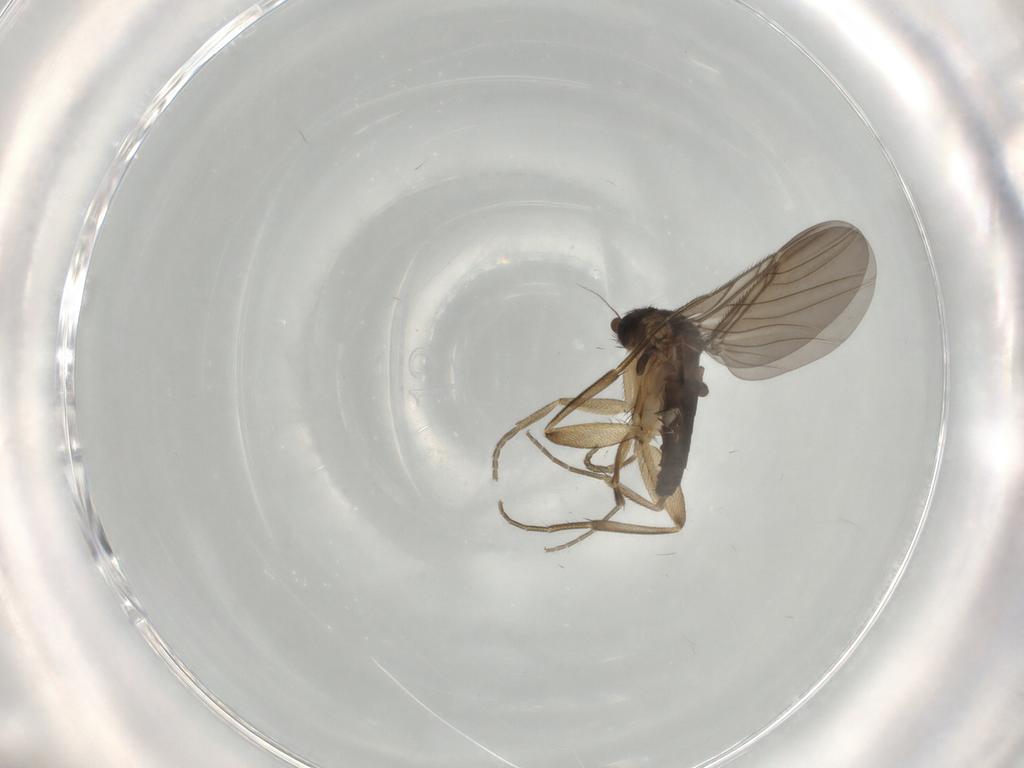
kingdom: Animalia
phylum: Arthropoda
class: Insecta
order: Diptera
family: Phoridae
